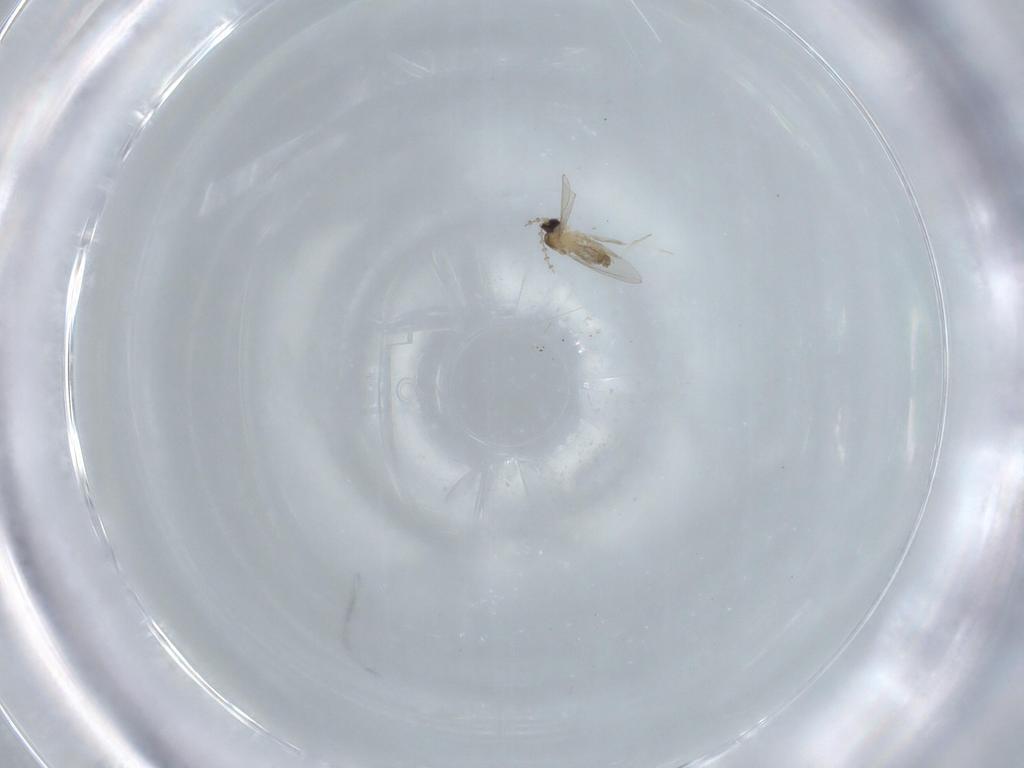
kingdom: Animalia
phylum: Arthropoda
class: Insecta
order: Diptera
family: Cecidomyiidae
